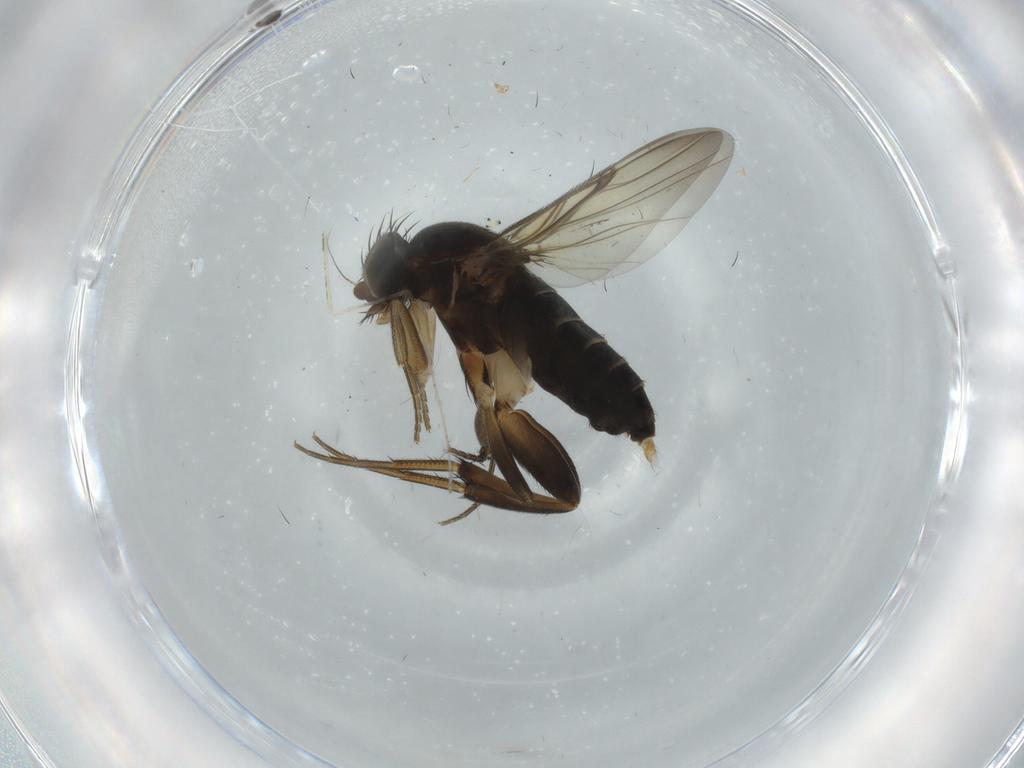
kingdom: Animalia
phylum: Arthropoda
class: Insecta
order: Diptera
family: Phoridae
